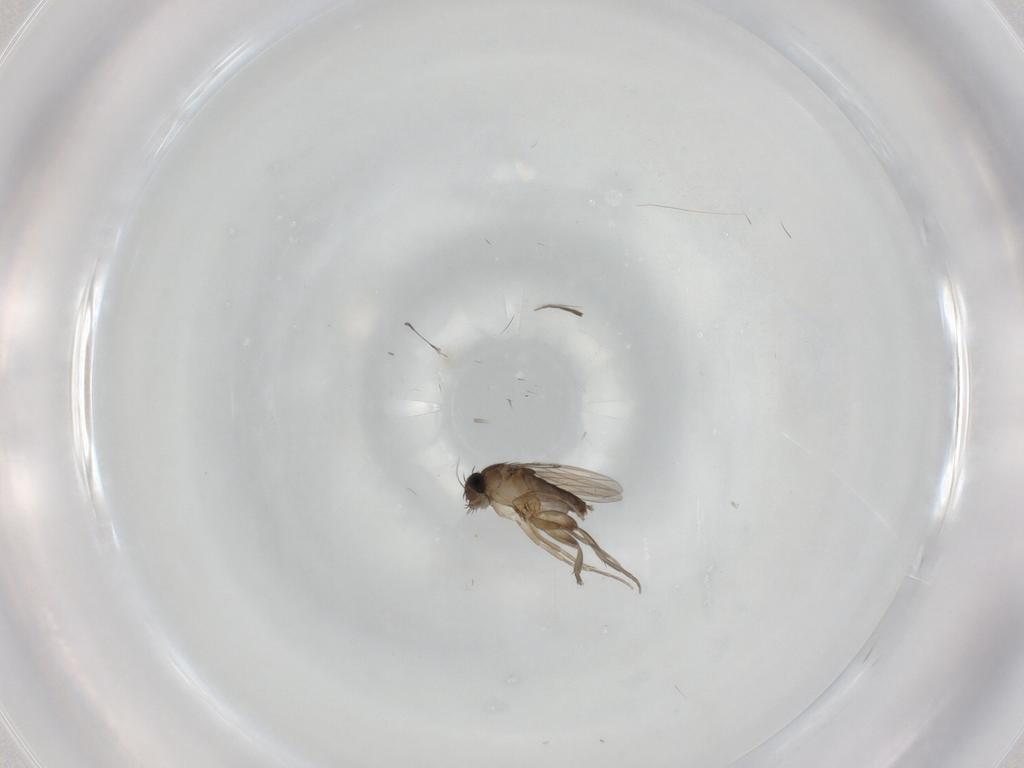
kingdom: Animalia
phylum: Arthropoda
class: Insecta
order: Diptera
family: Phoridae
